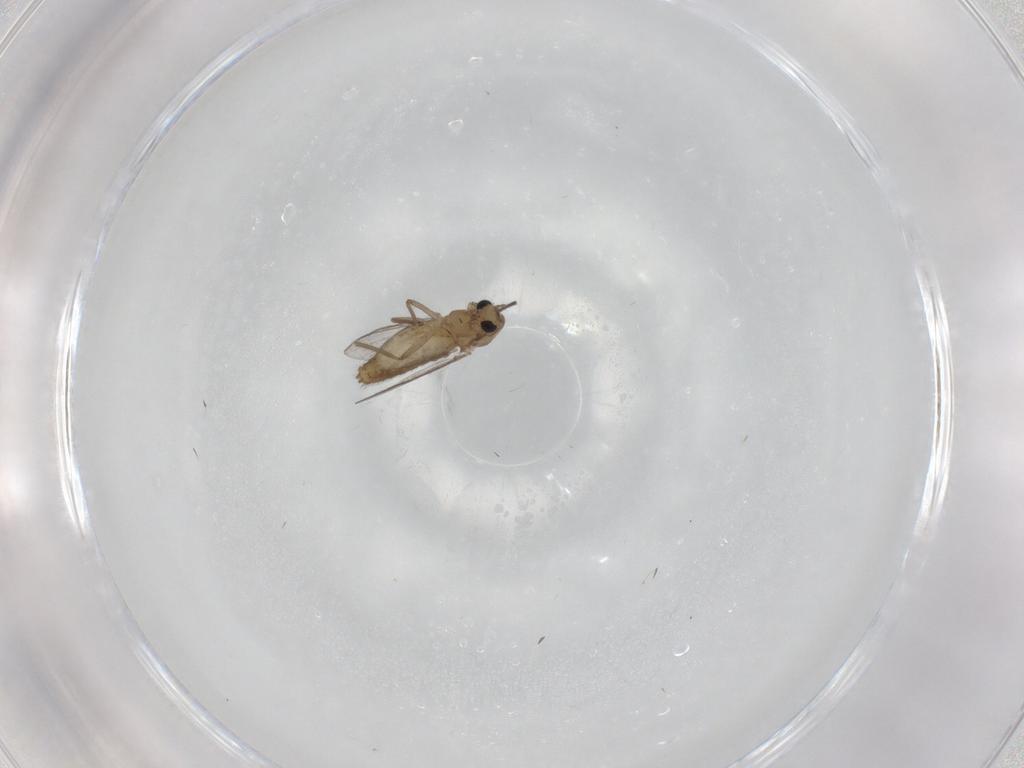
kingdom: Animalia
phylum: Arthropoda
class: Insecta
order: Diptera
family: Chironomidae
